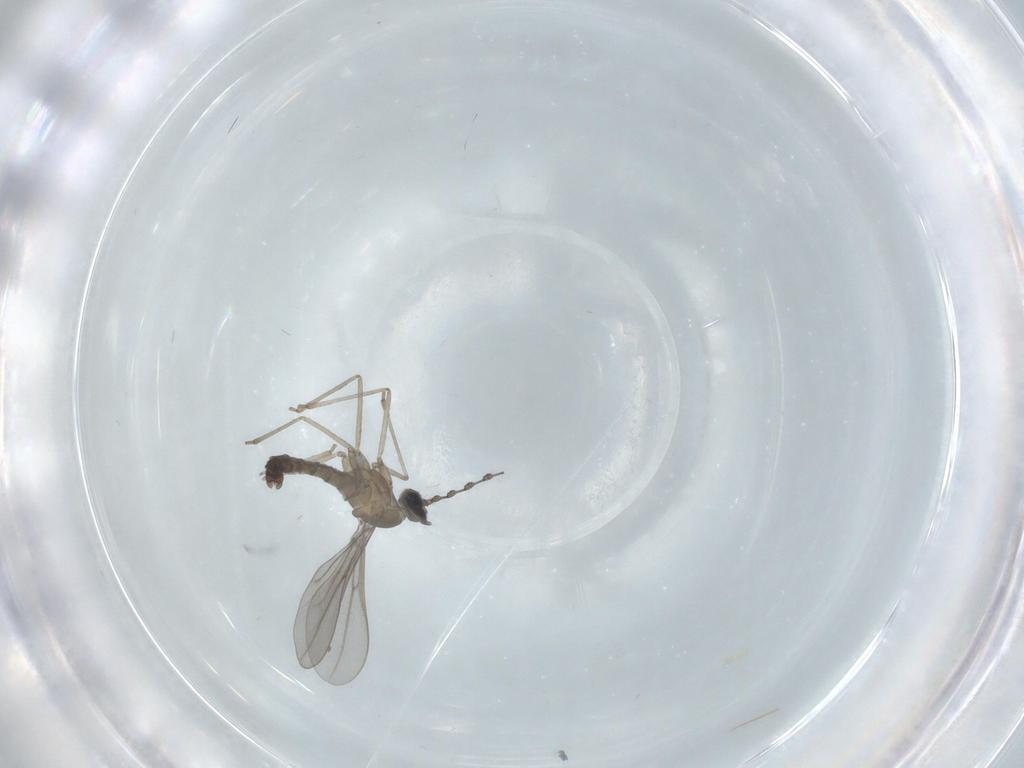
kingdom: Animalia
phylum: Arthropoda
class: Insecta
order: Diptera
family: Cecidomyiidae
